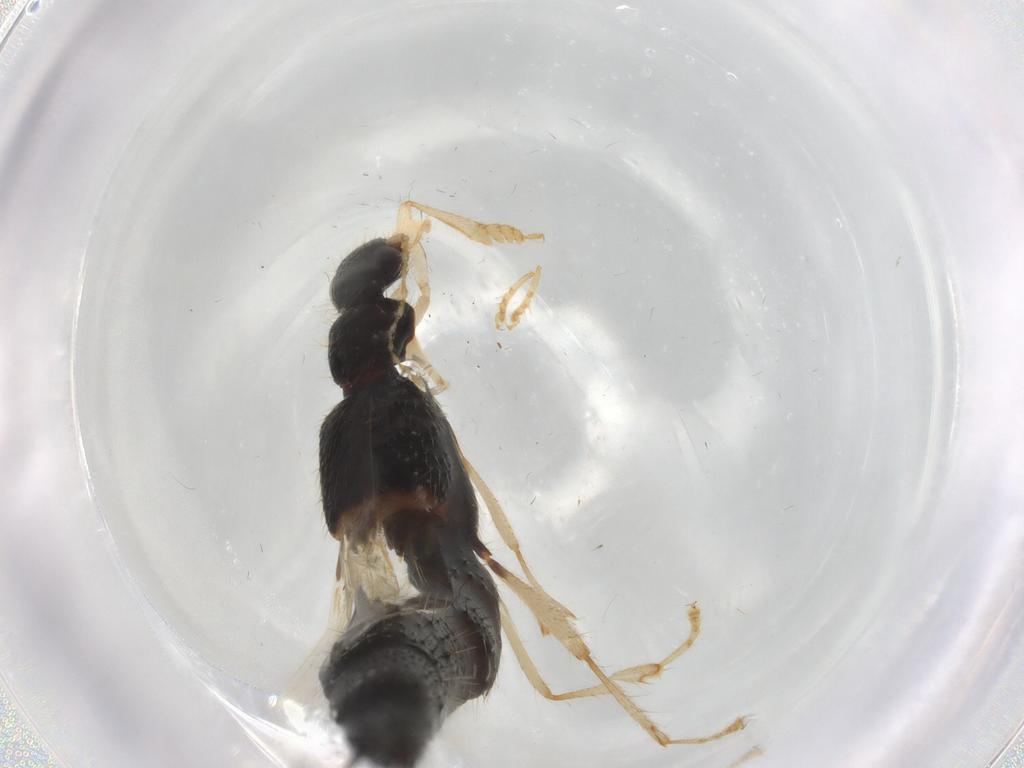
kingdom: Animalia
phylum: Arthropoda
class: Insecta
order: Coleoptera
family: Staphylinidae
